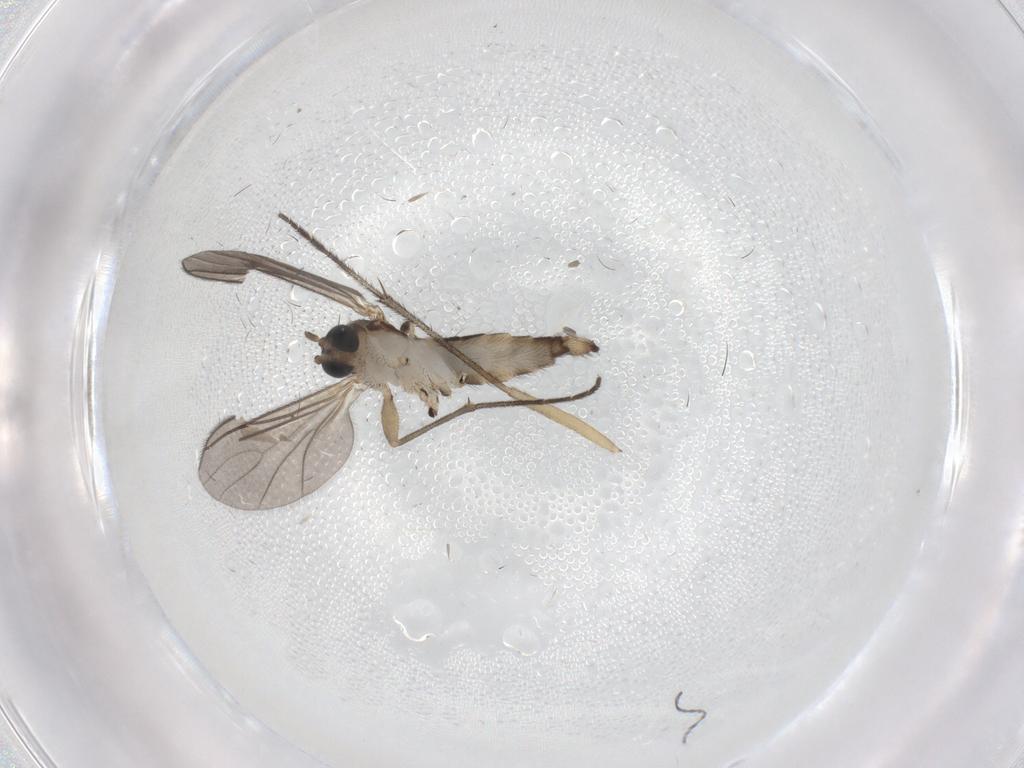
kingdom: Animalia
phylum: Arthropoda
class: Insecta
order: Diptera
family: Sciaridae
